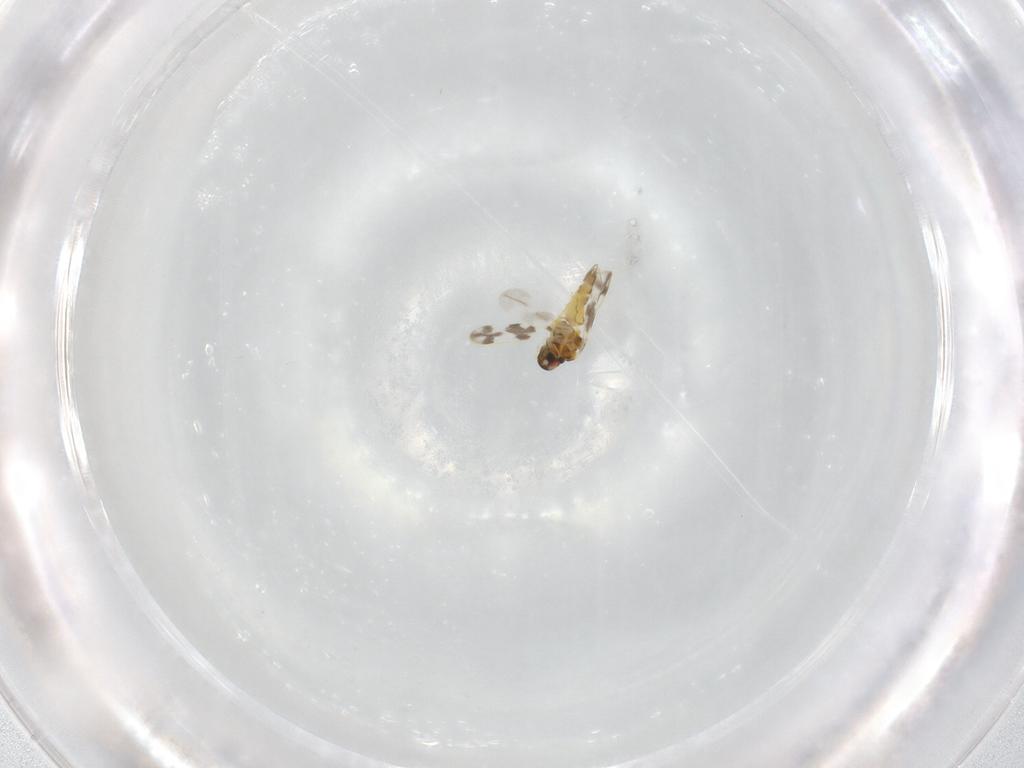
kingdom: Animalia
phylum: Arthropoda
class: Insecta
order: Hemiptera
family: Aleyrodidae
